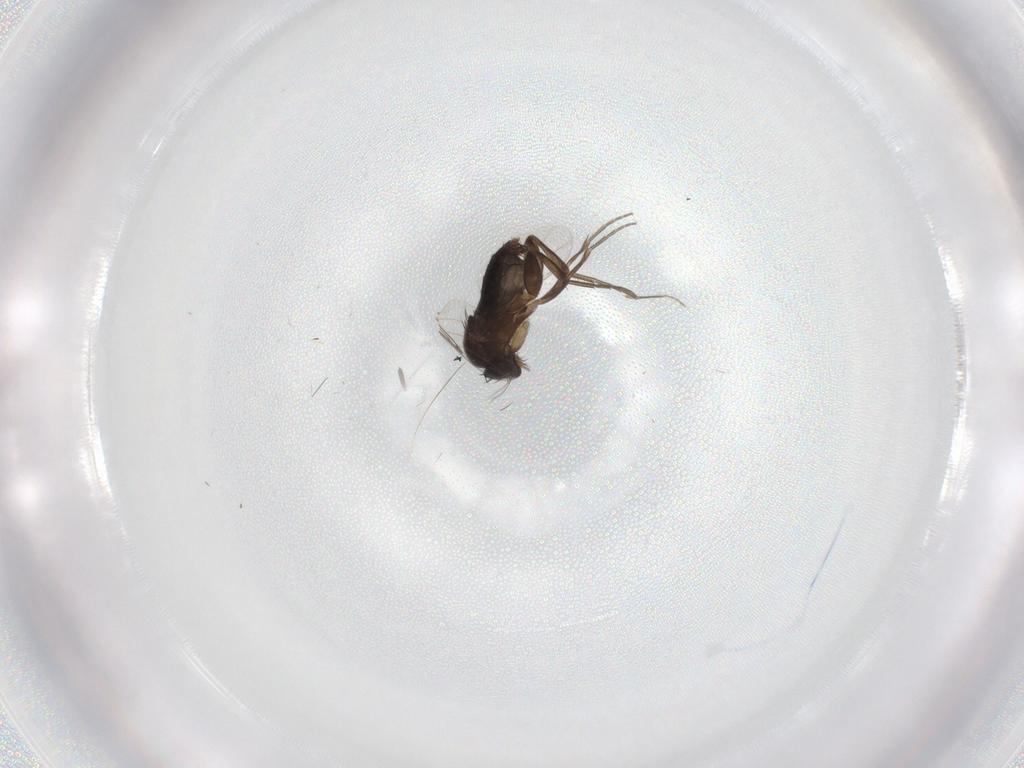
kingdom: Animalia
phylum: Arthropoda
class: Insecta
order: Diptera
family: Phoridae
